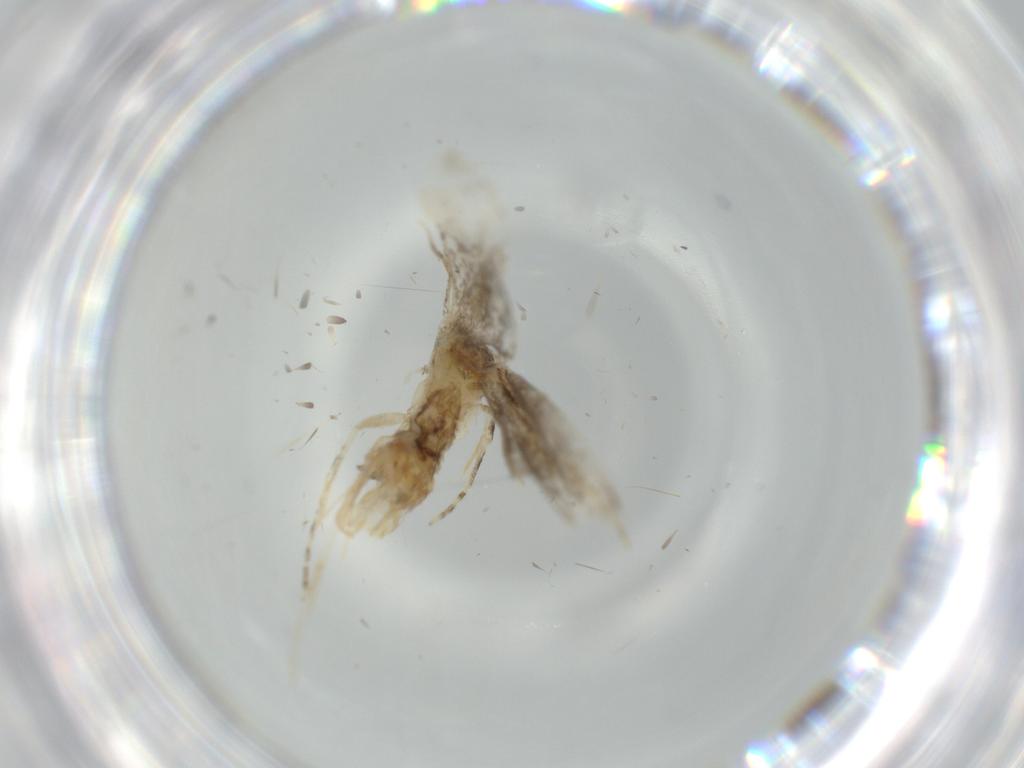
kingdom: Animalia
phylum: Arthropoda
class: Insecta
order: Lepidoptera
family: Tineidae
